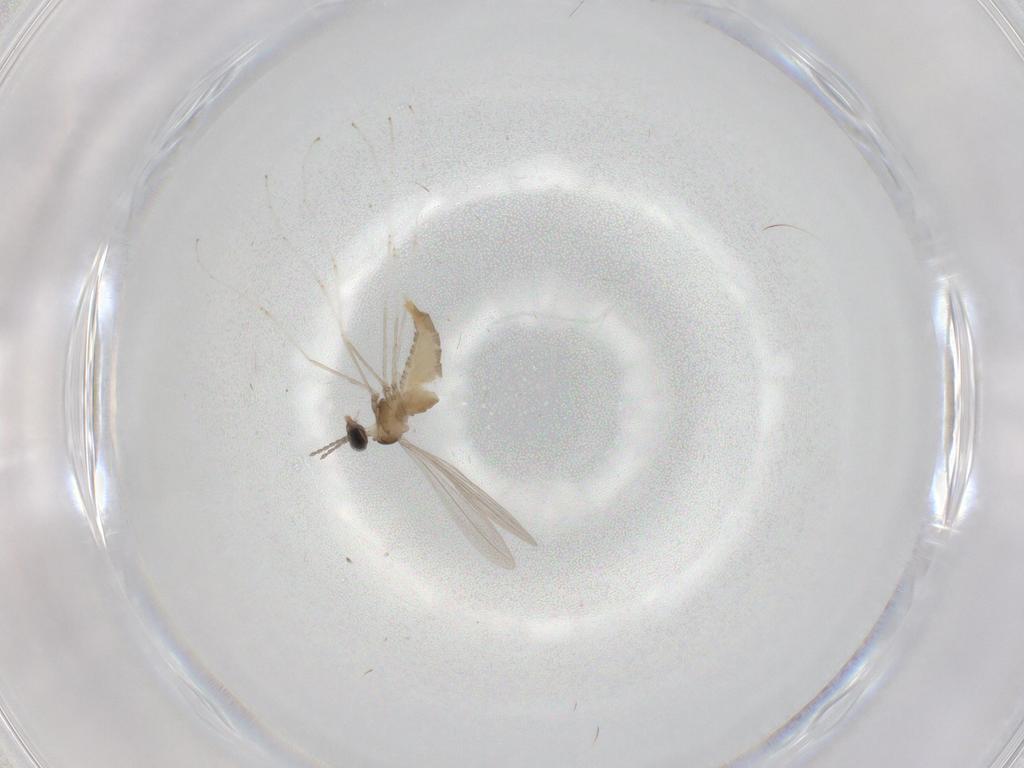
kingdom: Animalia
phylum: Arthropoda
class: Insecta
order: Diptera
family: Cecidomyiidae
